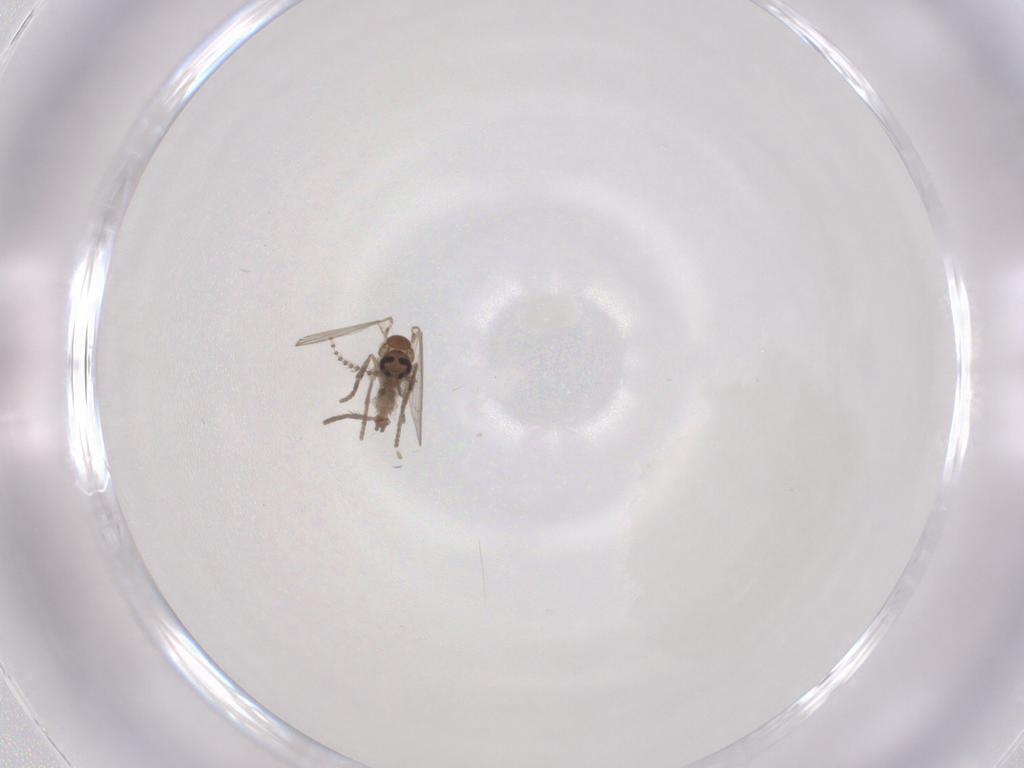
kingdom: Animalia
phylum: Arthropoda
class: Insecta
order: Diptera
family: Psychodidae
